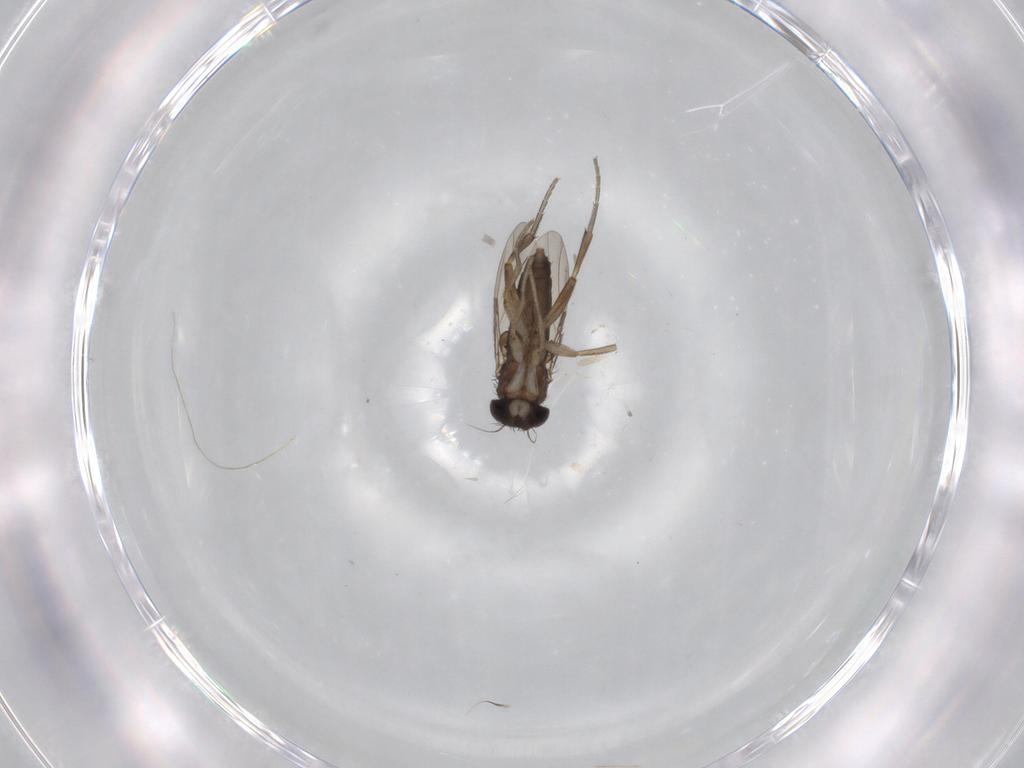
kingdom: Animalia
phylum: Arthropoda
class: Insecta
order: Diptera
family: Phoridae
